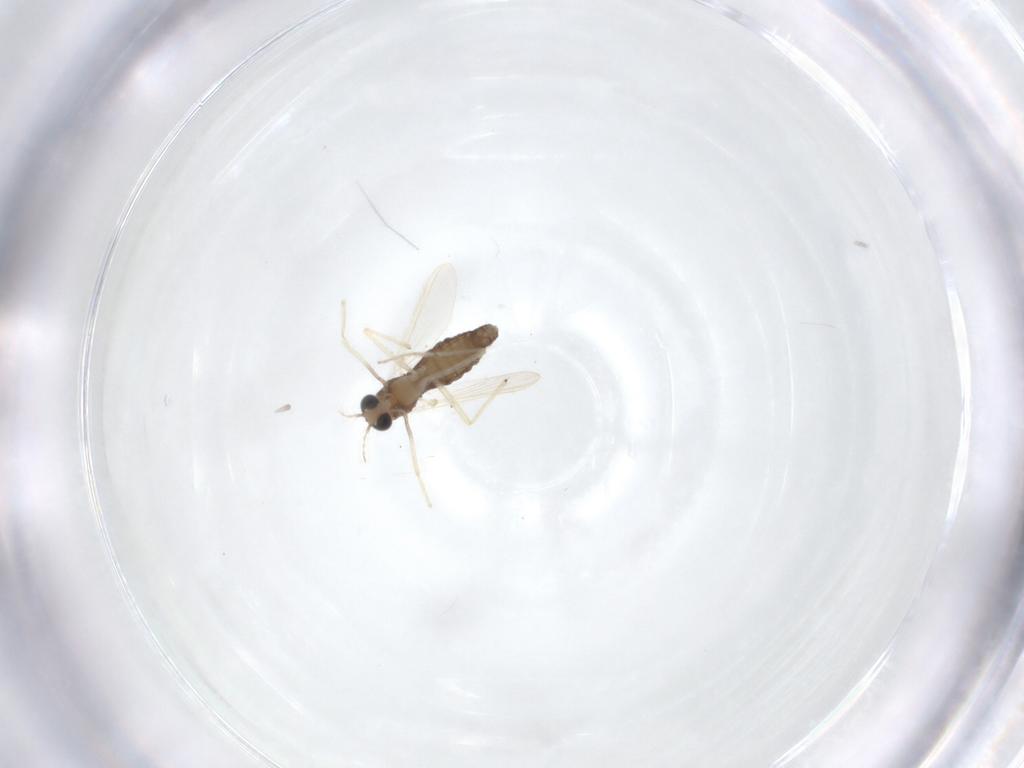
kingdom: Animalia
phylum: Arthropoda
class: Insecta
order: Diptera
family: Chironomidae
